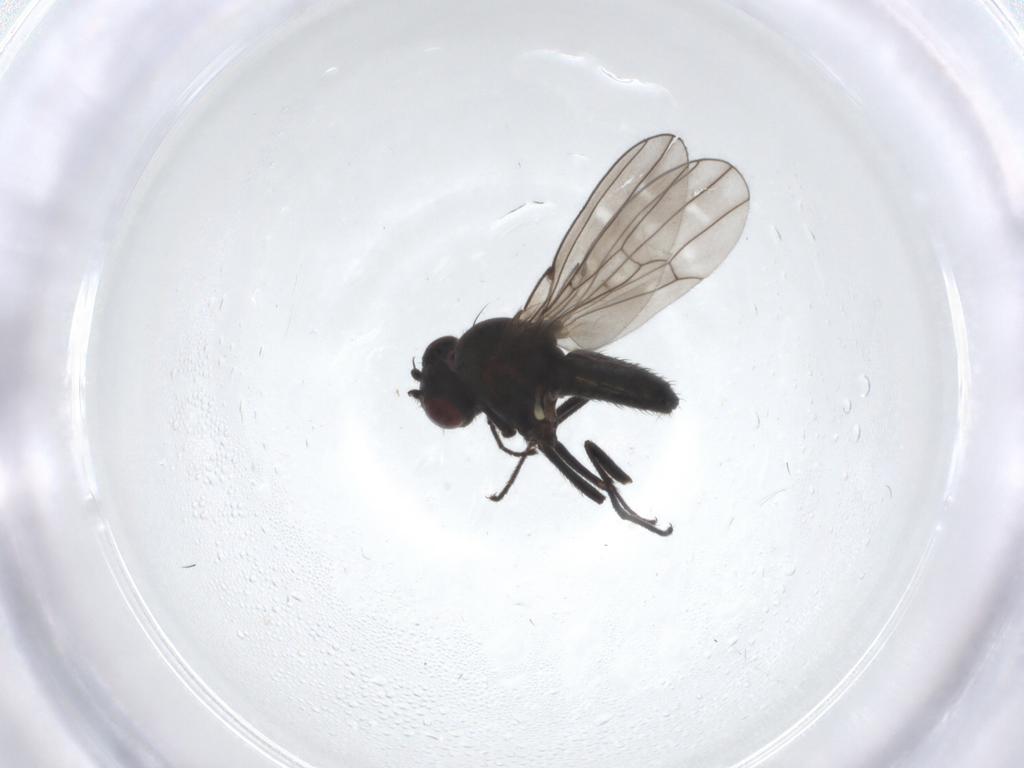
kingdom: Animalia
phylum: Arthropoda
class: Insecta
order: Diptera
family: Ephydridae
